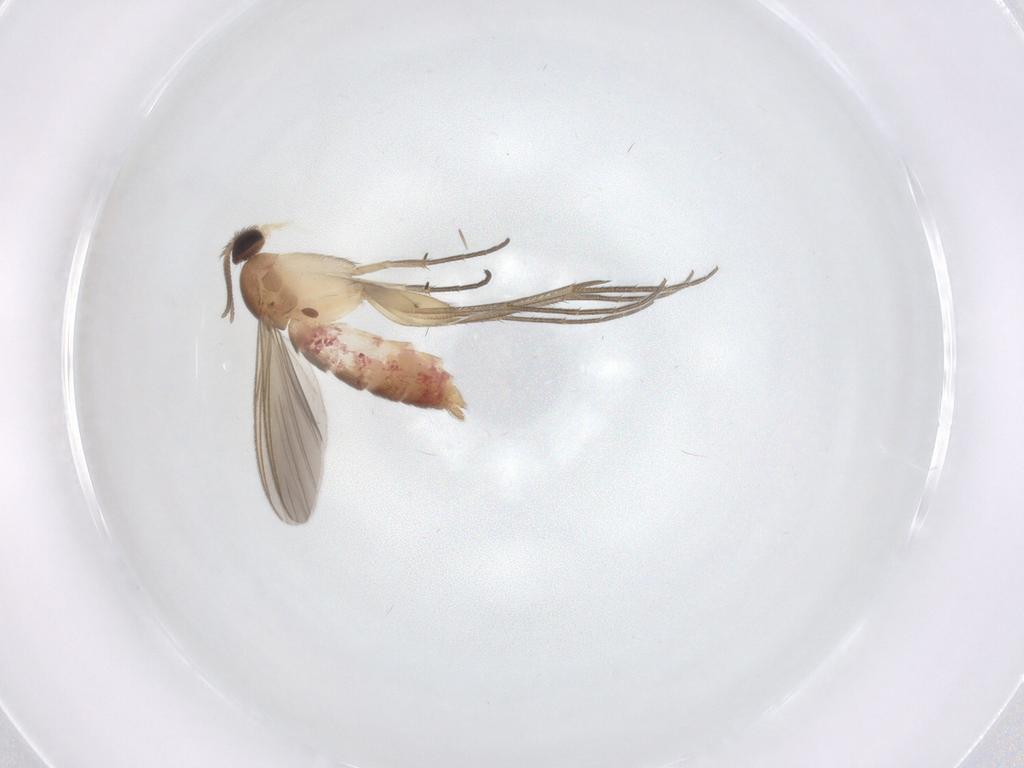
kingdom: Animalia
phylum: Arthropoda
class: Insecta
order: Diptera
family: Mycetophilidae
